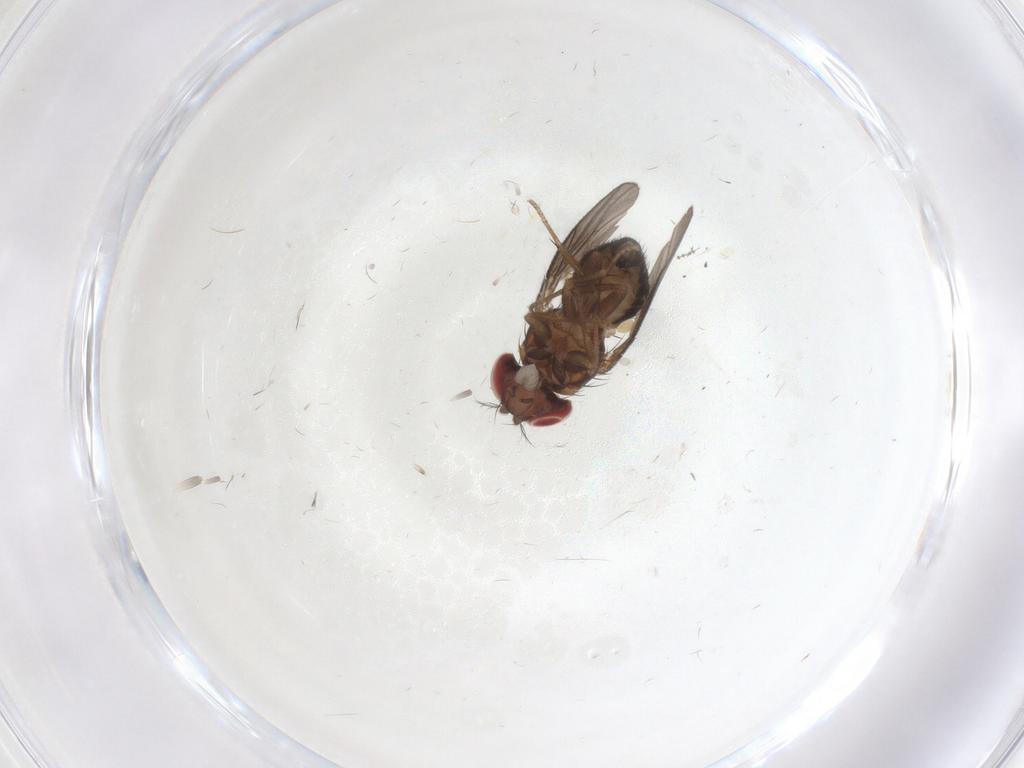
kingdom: Animalia
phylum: Arthropoda
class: Insecta
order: Diptera
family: Drosophilidae
